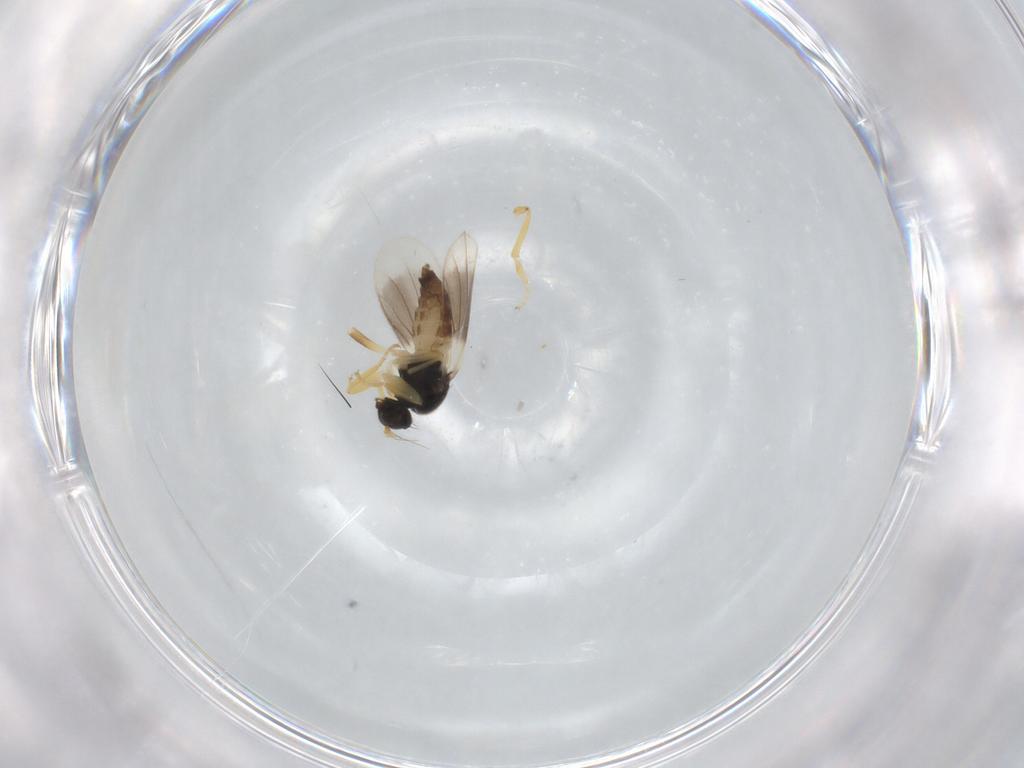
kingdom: Animalia
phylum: Arthropoda
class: Insecta
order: Diptera
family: Hybotidae
